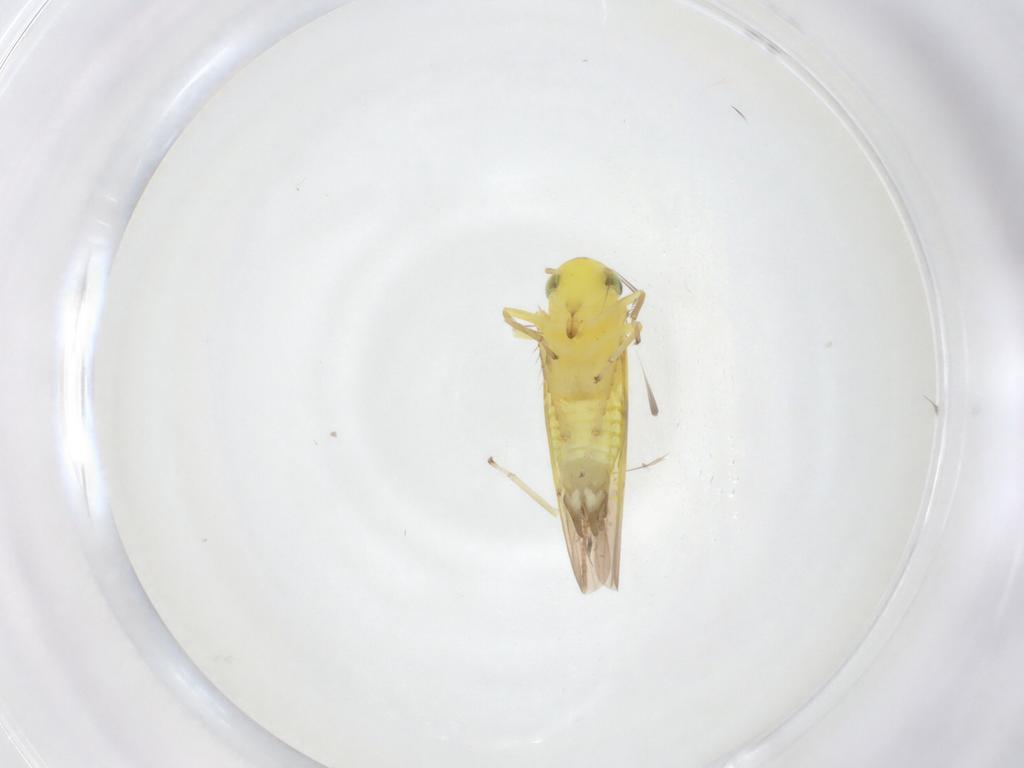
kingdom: Animalia
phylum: Arthropoda
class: Insecta
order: Hemiptera
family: Cicadellidae
